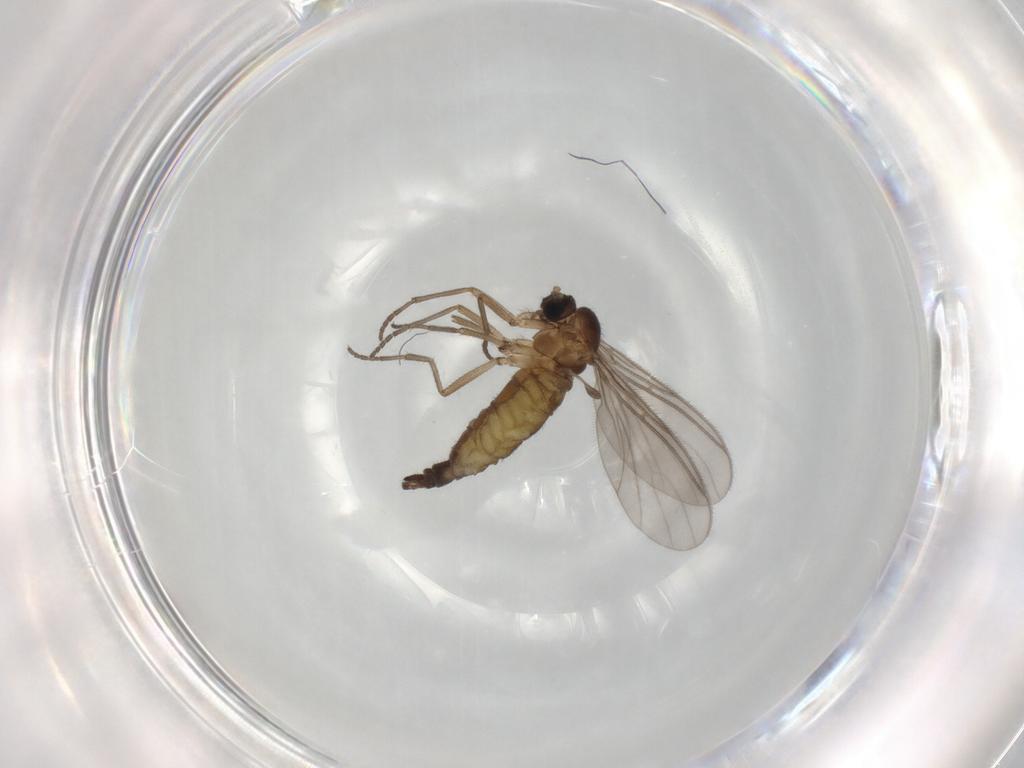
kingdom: Animalia
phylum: Arthropoda
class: Insecta
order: Diptera
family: Sciaridae
